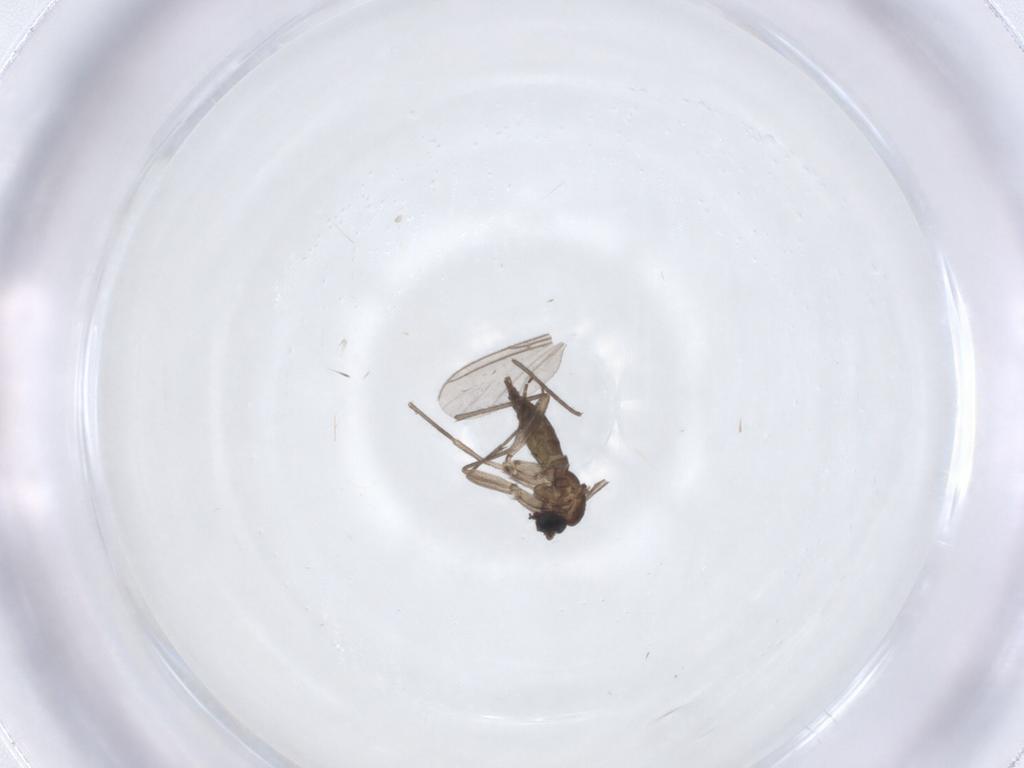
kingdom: Animalia
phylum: Arthropoda
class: Insecta
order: Diptera
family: Sciaridae
